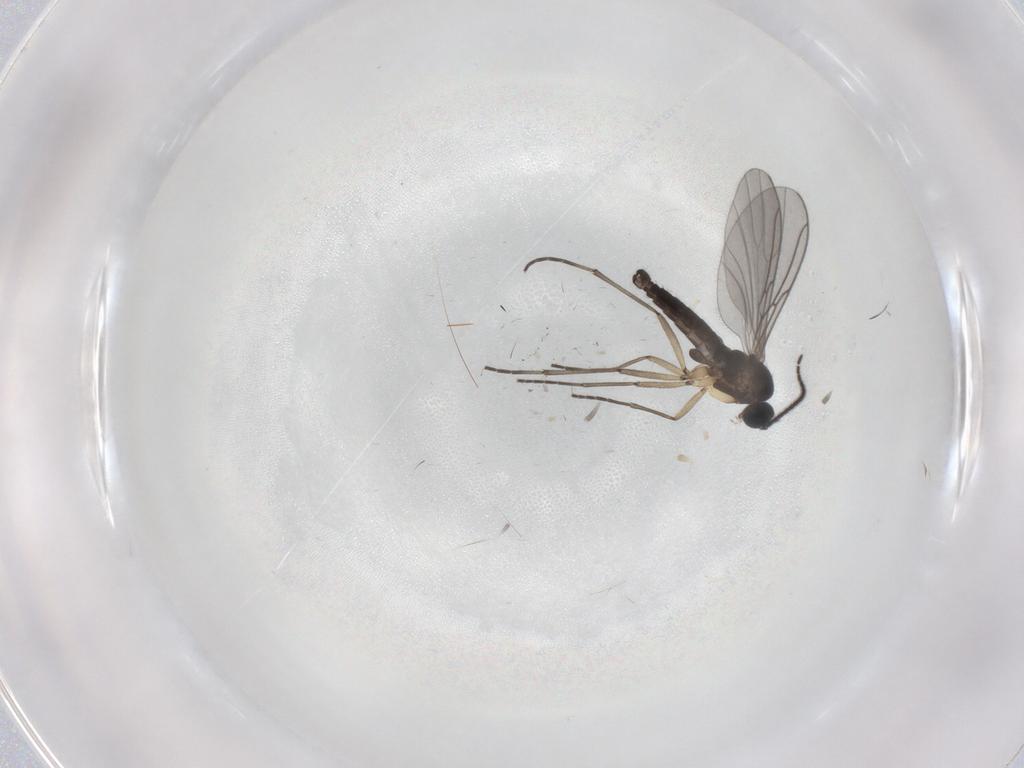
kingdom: Animalia
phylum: Arthropoda
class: Insecta
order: Diptera
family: Sciaridae
